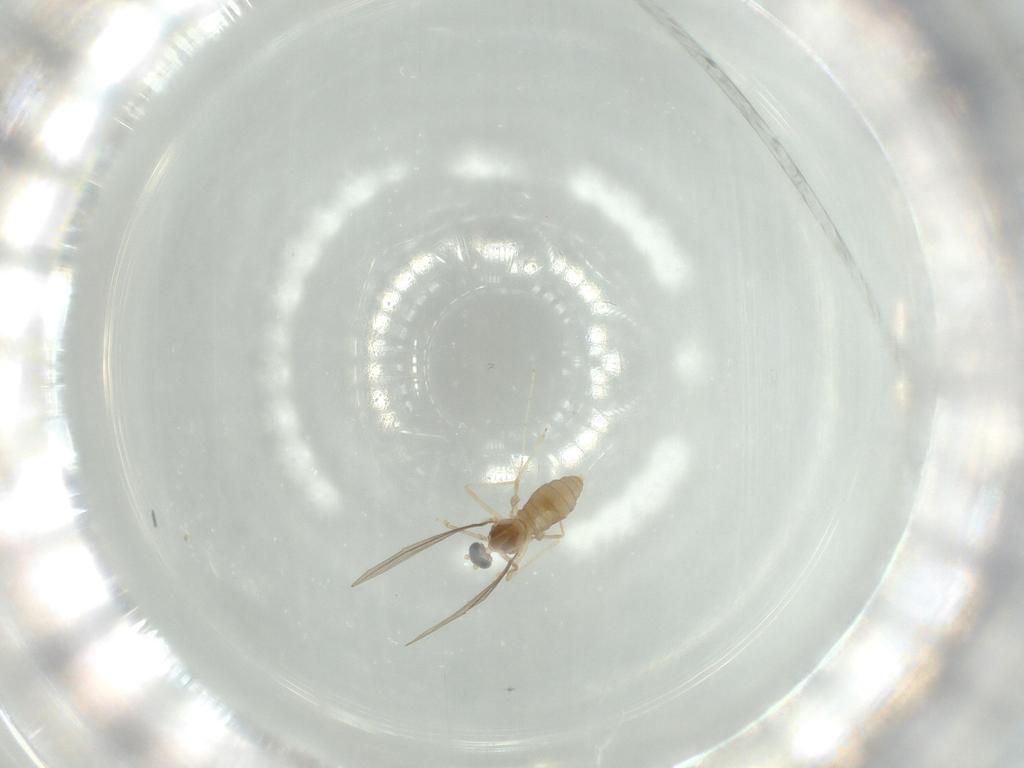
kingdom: Animalia
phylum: Arthropoda
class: Insecta
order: Diptera
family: Cecidomyiidae
